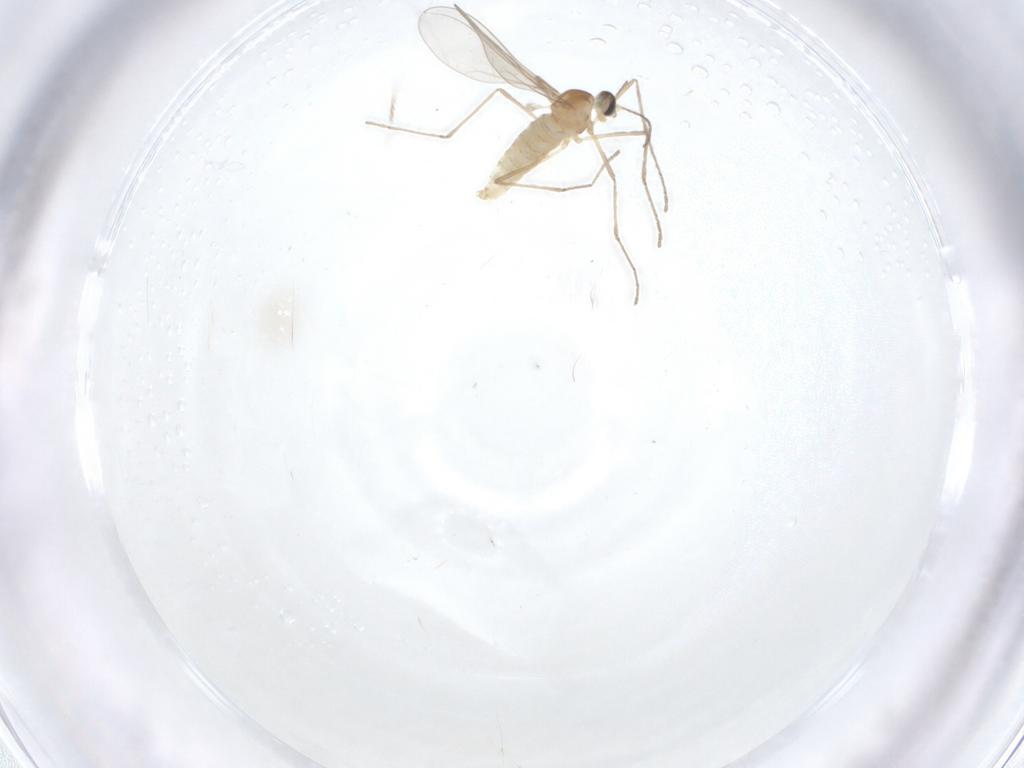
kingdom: Animalia
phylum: Arthropoda
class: Insecta
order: Diptera
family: Cecidomyiidae
